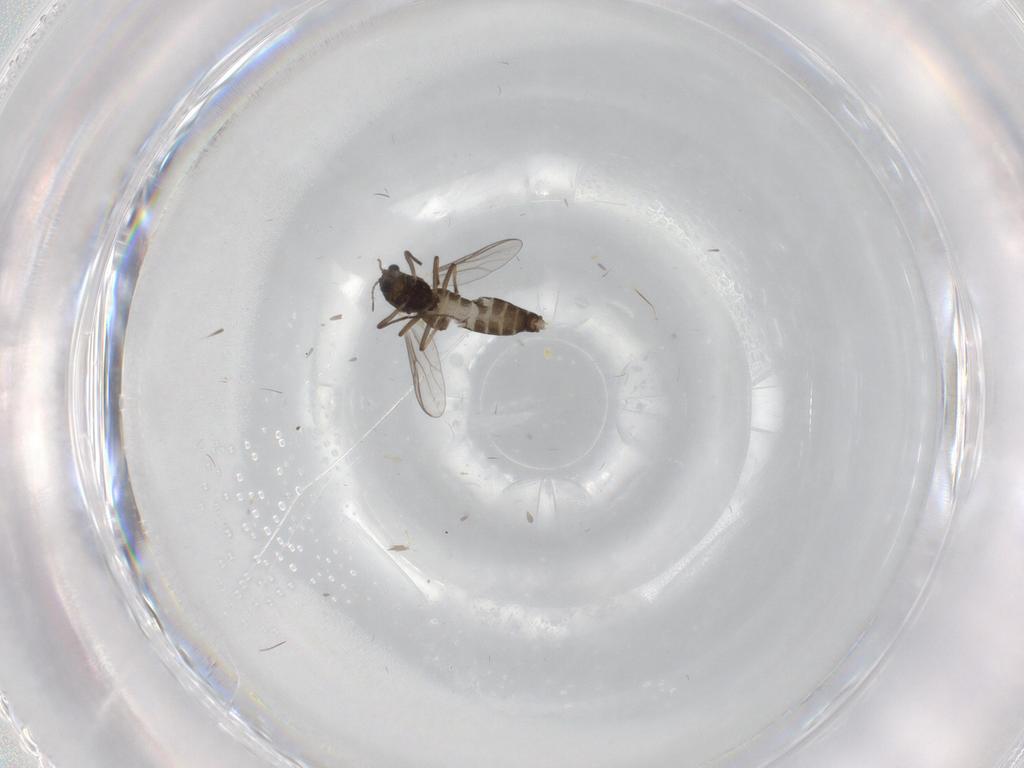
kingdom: Animalia
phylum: Arthropoda
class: Insecta
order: Diptera
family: Chironomidae
